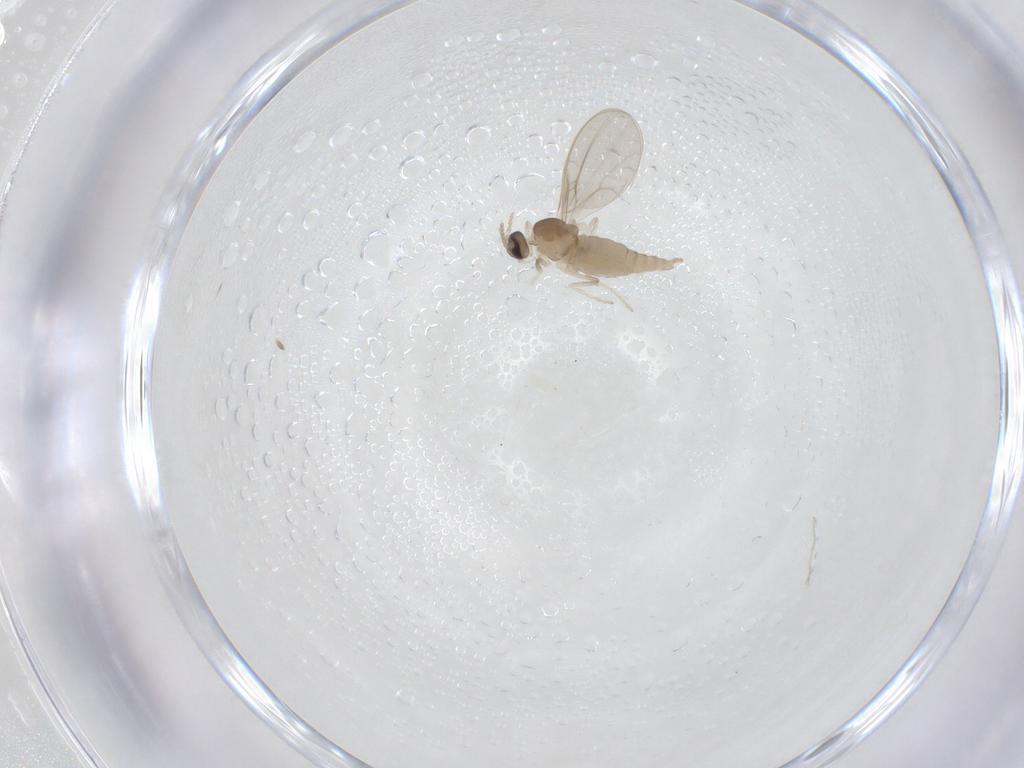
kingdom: Animalia
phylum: Arthropoda
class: Insecta
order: Diptera
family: Cecidomyiidae
